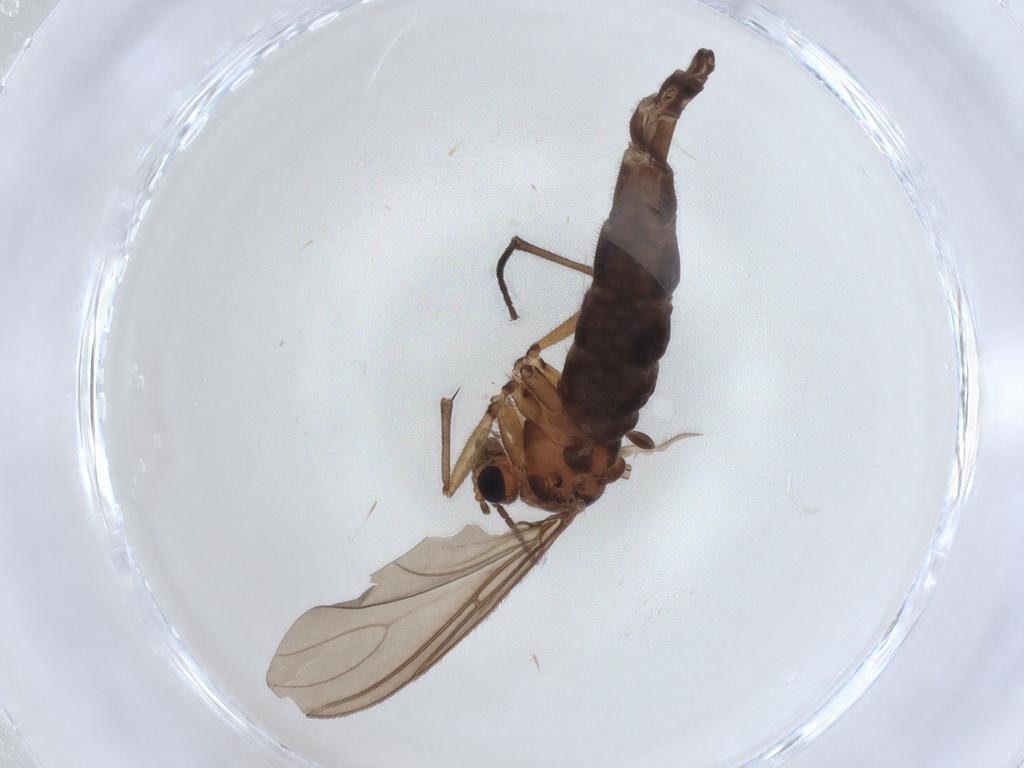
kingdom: Animalia
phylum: Arthropoda
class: Insecta
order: Diptera
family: Sciaridae
